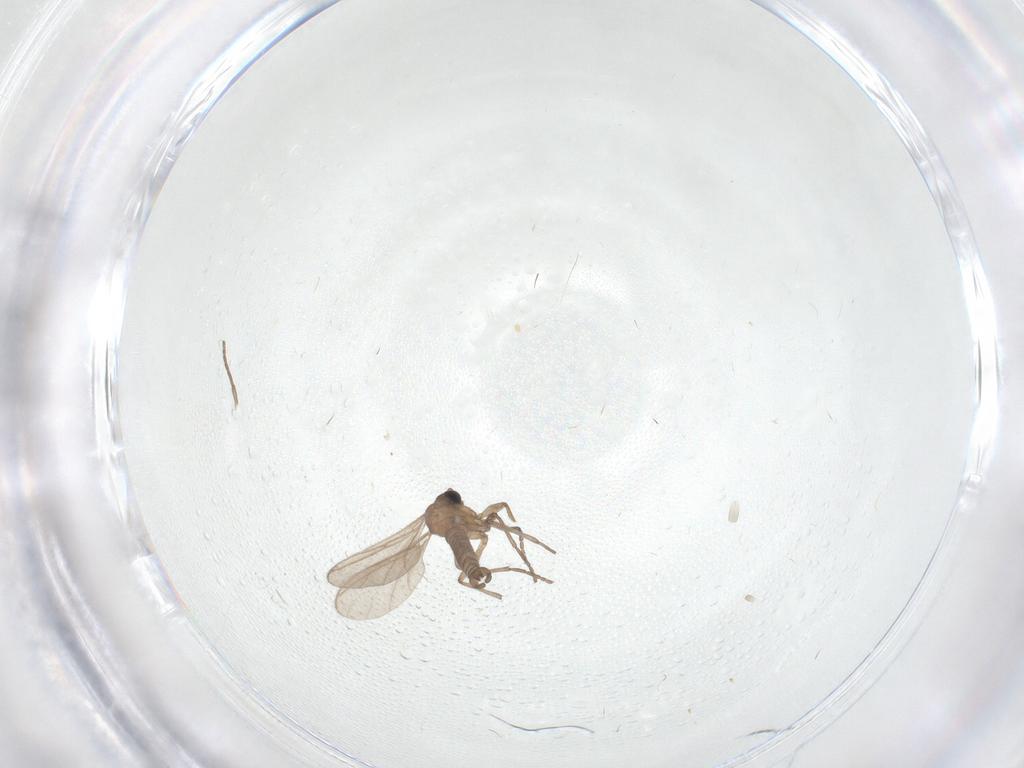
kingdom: Animalia
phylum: Arthropoda
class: Insecta
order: Diptera
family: Sciaridae
